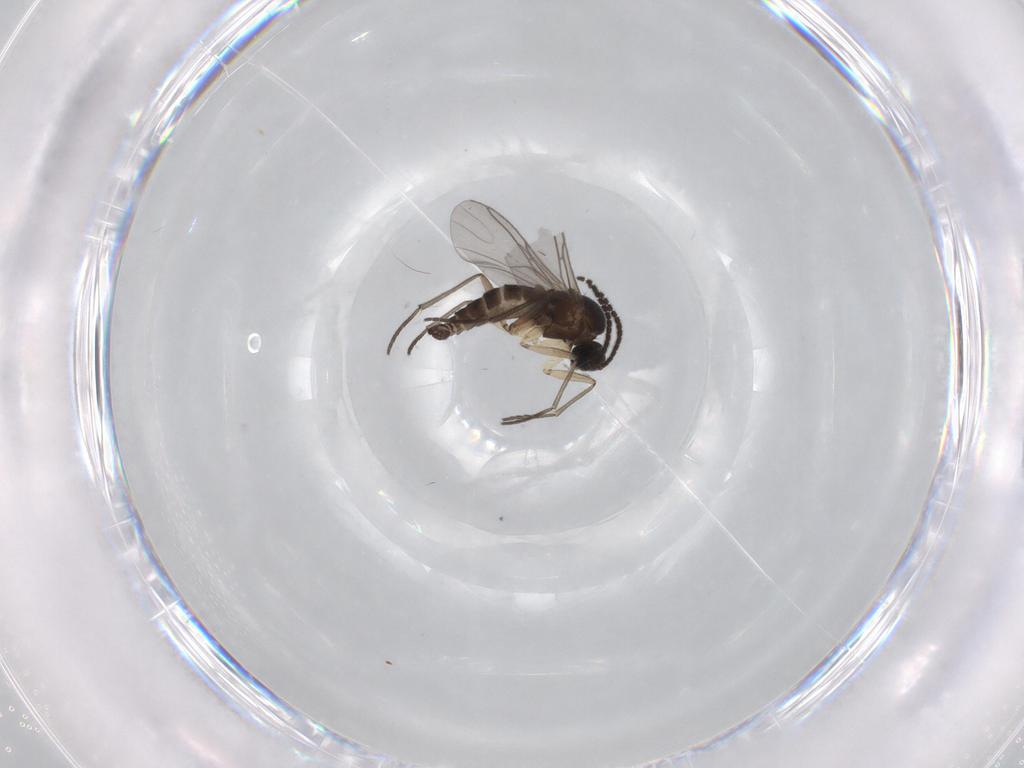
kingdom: Animalia
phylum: Arthropoda
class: Insecta
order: Diptera
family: Sciaridae
